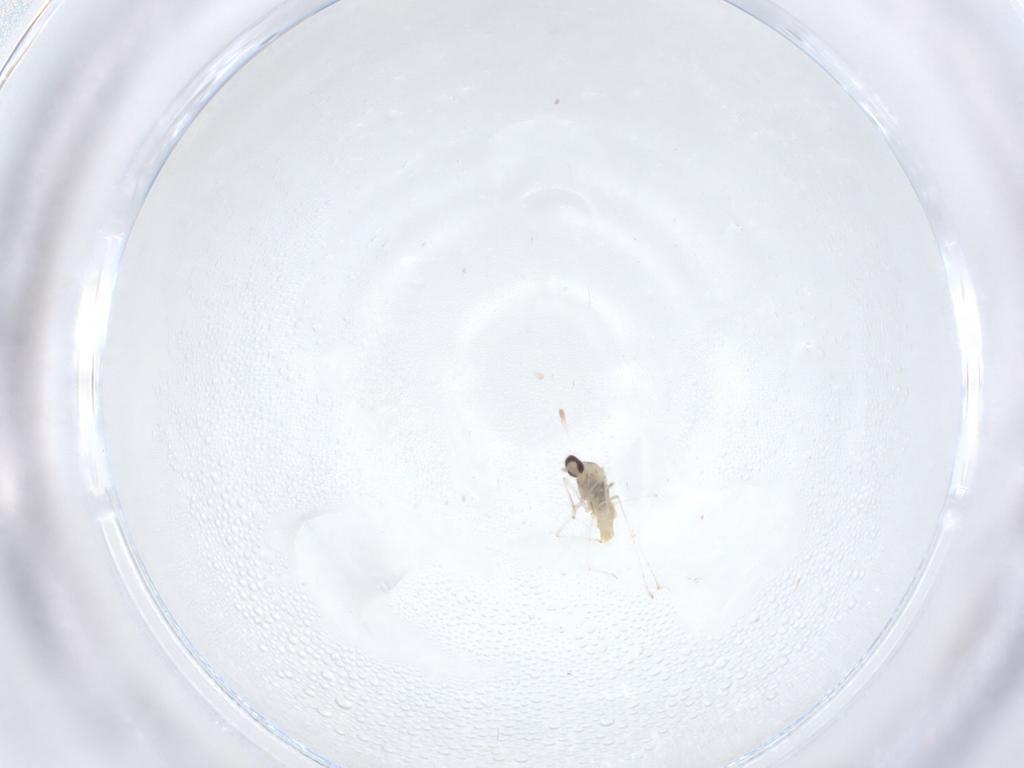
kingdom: Animalia
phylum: Arthropoda
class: Insecta
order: Diptera
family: Cecidomyiidae
